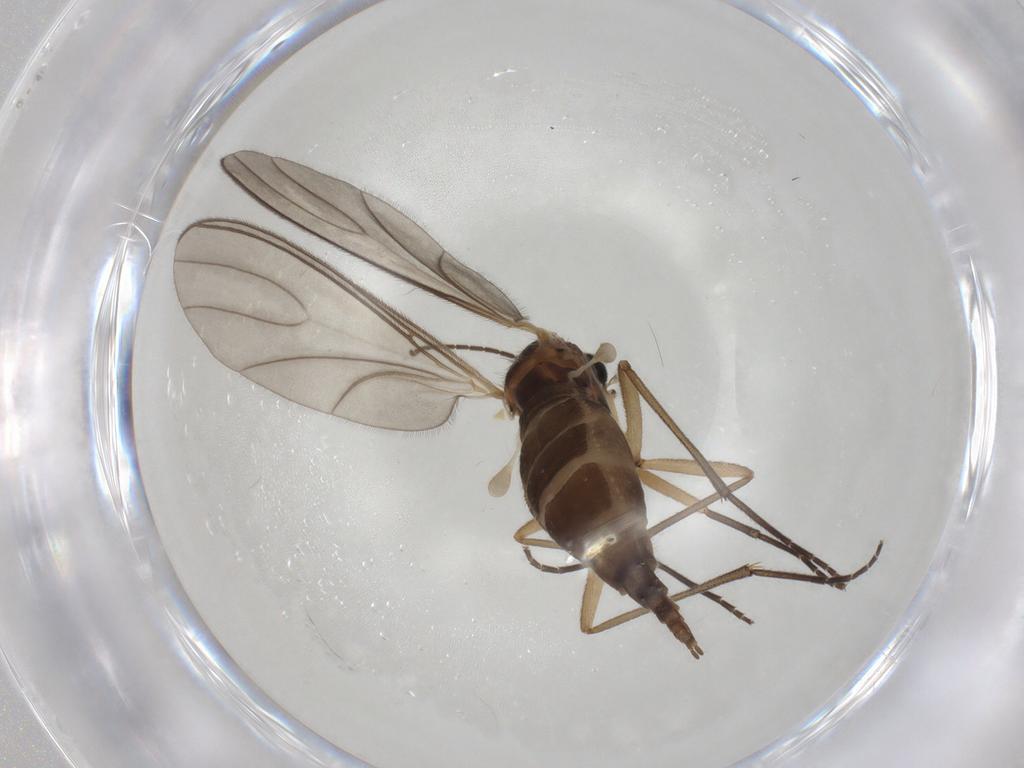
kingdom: Animalia
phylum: Arthropoda
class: Insecta
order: Diptera
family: Sciaridae
